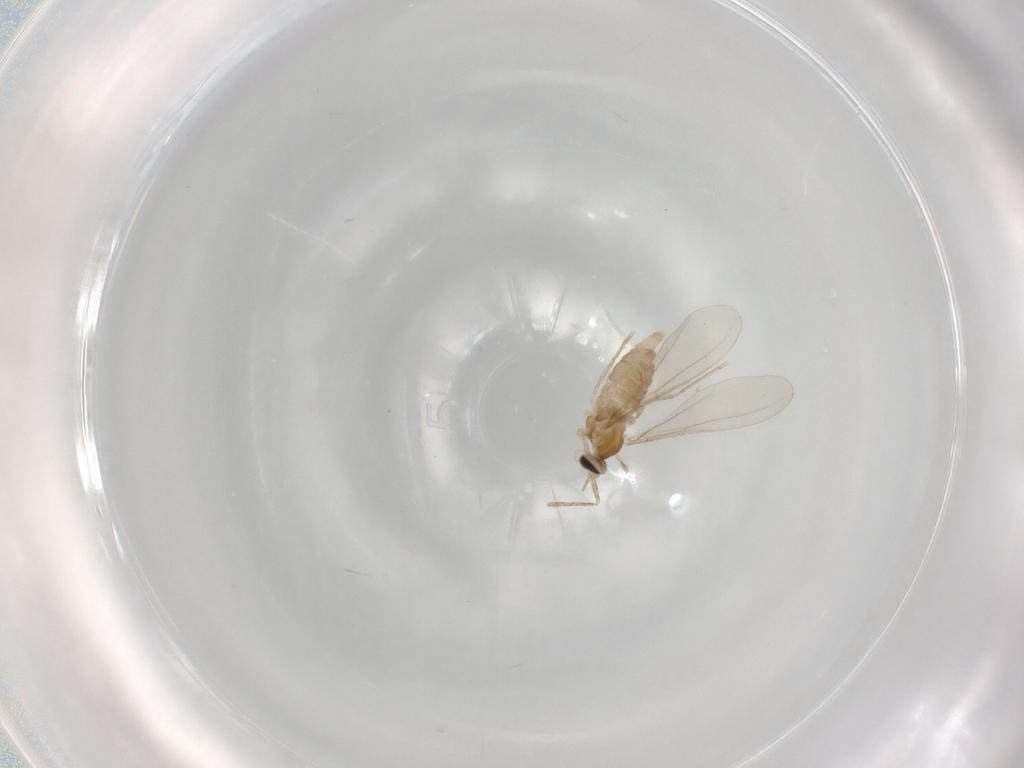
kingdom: Animalia
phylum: Arthropoda
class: Insecta
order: Diptera
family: Cecidomyiidae
